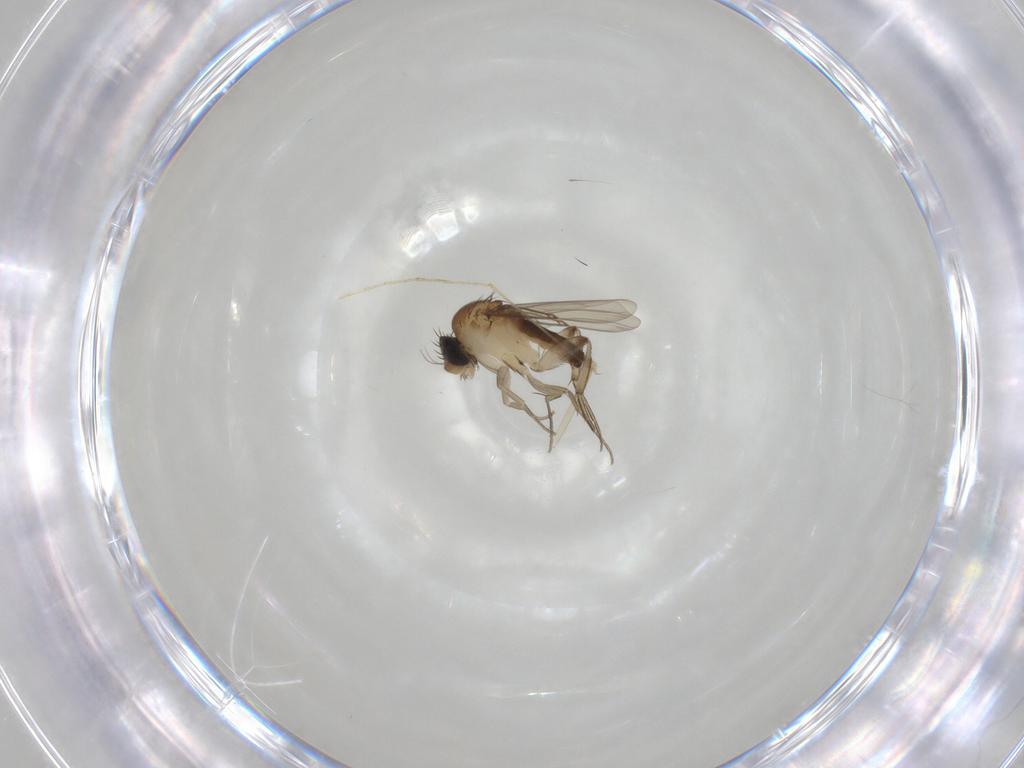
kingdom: Animalia
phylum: Arthropoda
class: Insecta
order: Diptera
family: Phoridae
